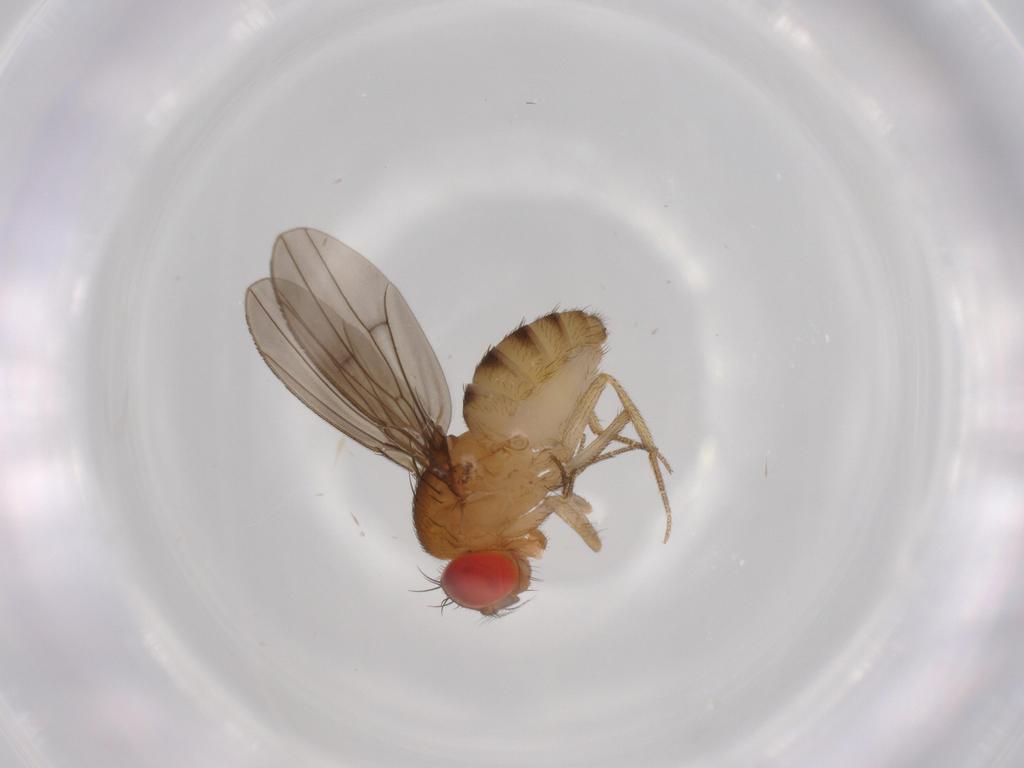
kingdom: Animalia
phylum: Arthropoda
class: Insecta
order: Diptera
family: Drosophilidae
